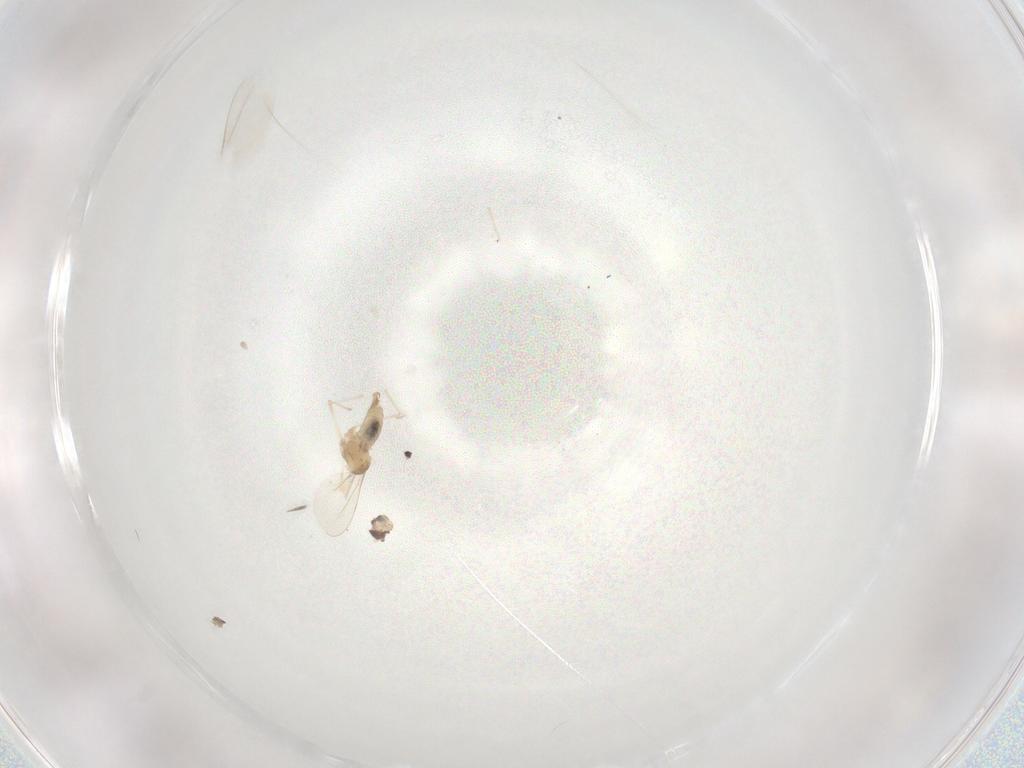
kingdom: Animalia
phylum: Arthropoda
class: Insecta
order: Diptera
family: Cecidomyiidae
